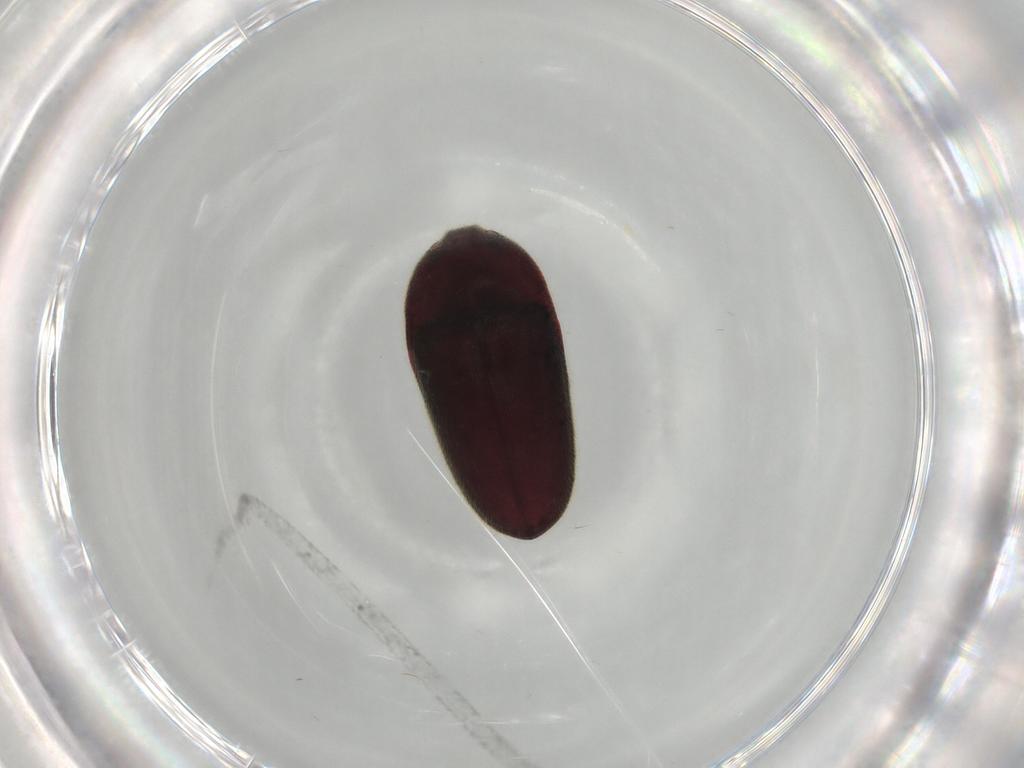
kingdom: Animalia
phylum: Arthropoda
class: Insecta
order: Coleoptera
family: Throscidae
